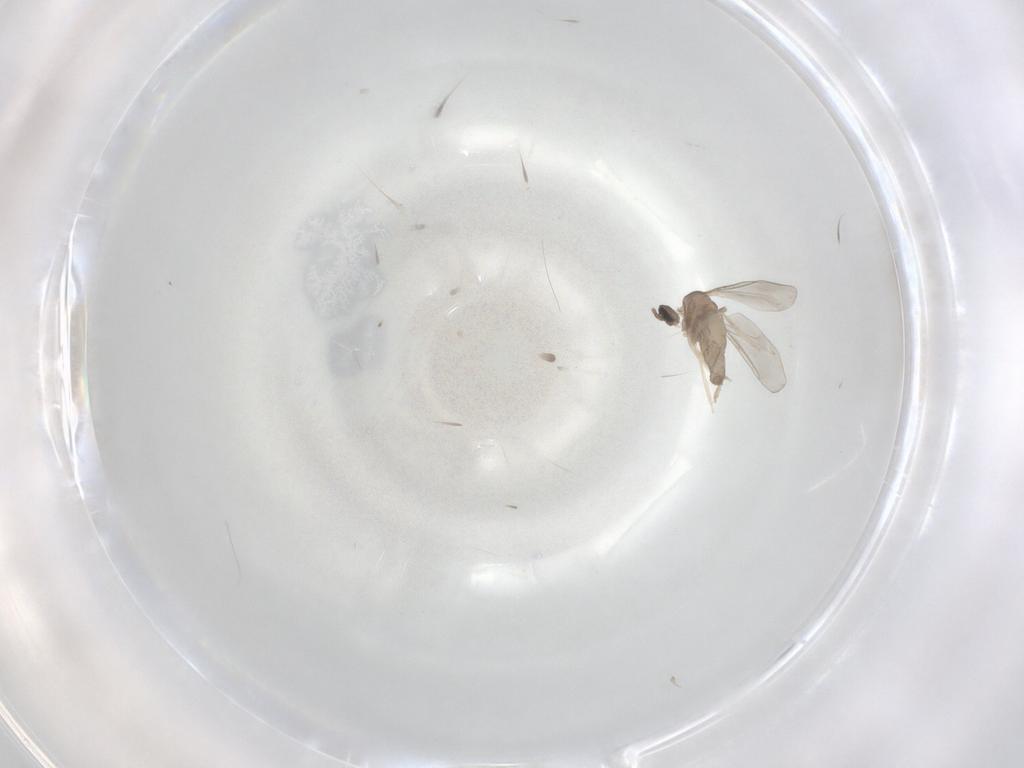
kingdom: Animalia
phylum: Arthropoda
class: Insecta
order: Diptera
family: Cecidomyiidae
